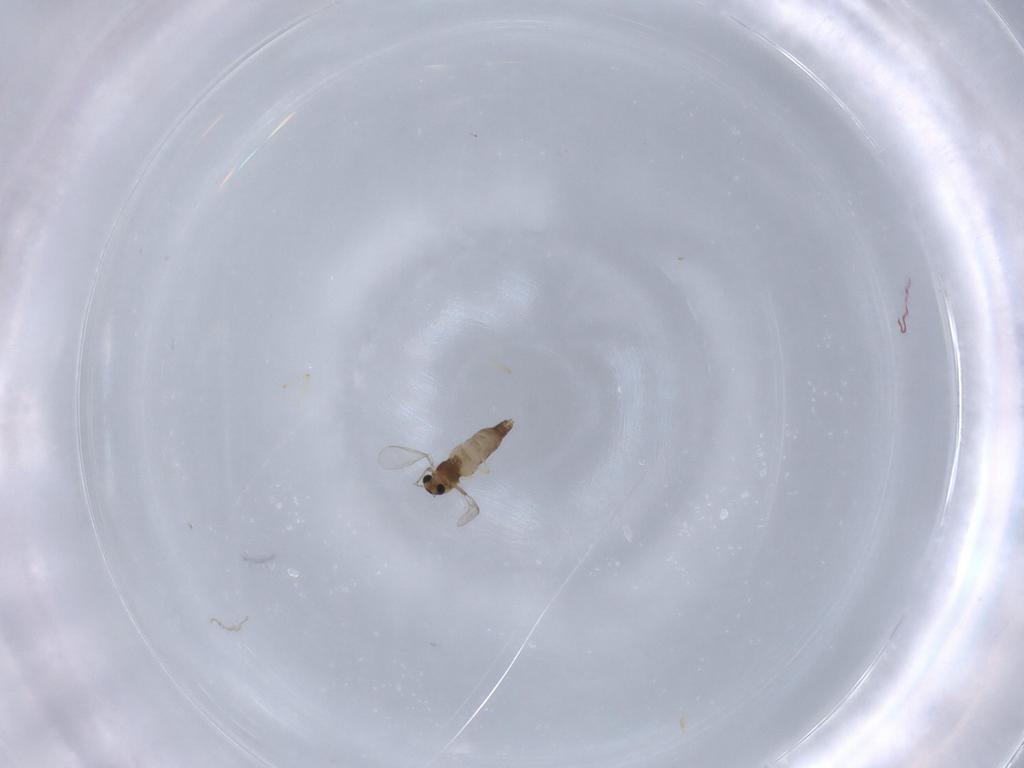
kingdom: Animalia
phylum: Arthropoda
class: Insecta
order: Diptera
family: Chironomidae
